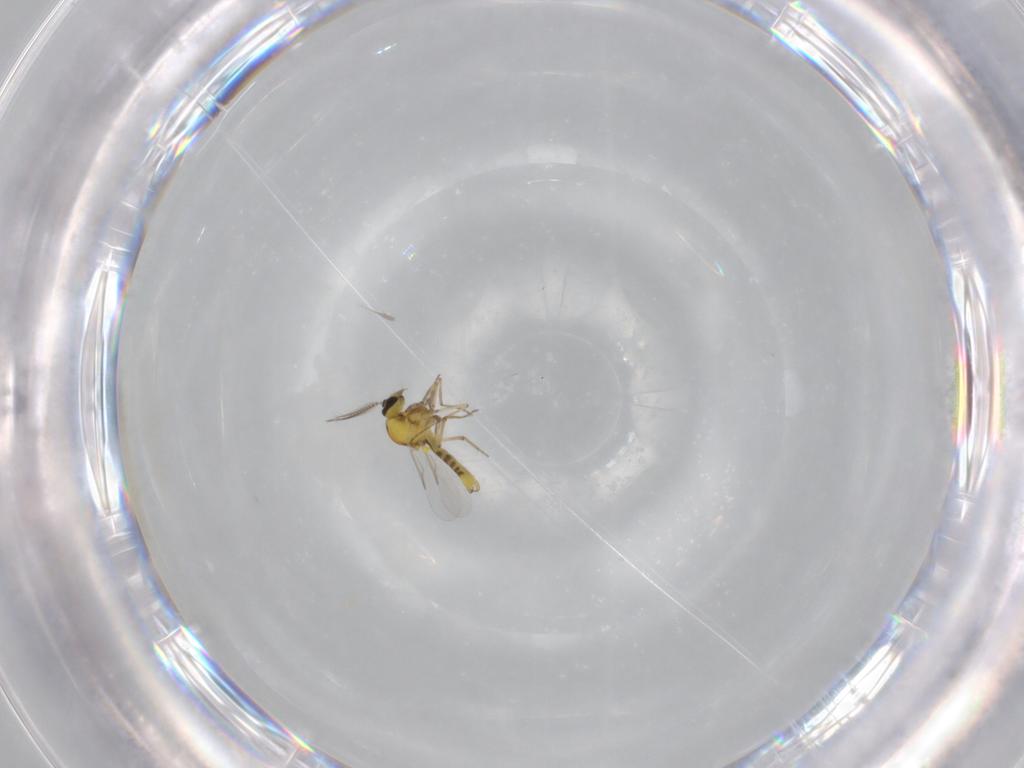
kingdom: Animalia
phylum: Arthropoda
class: Insecta
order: Diptera
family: Ceratopogonidae
